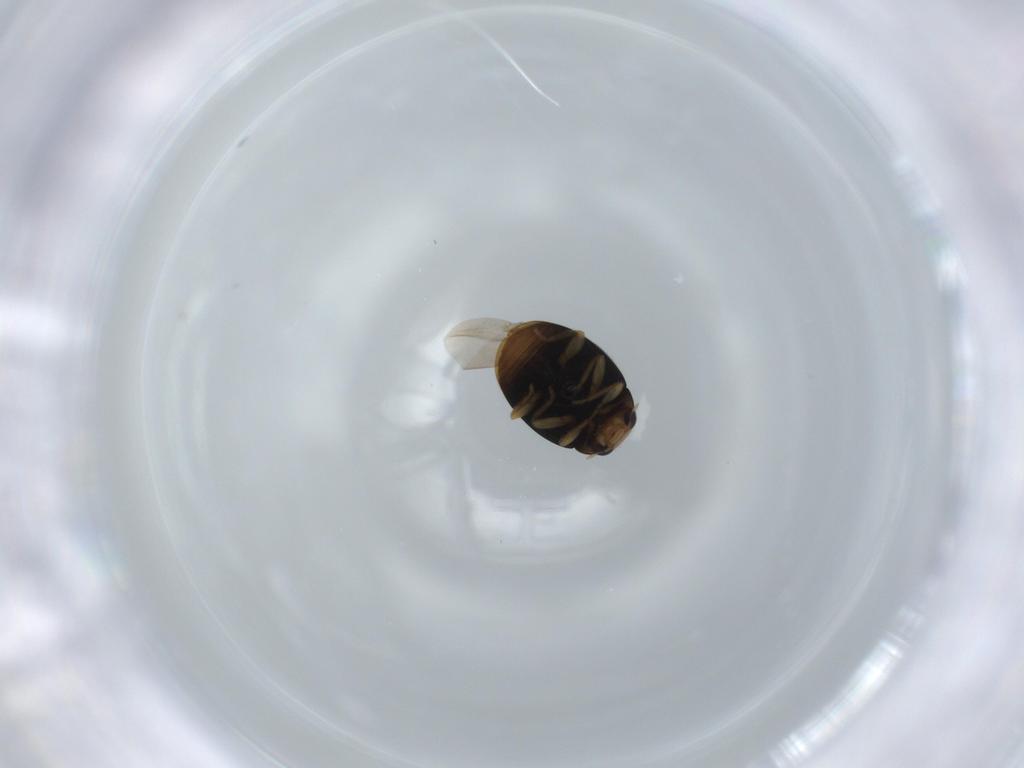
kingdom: Animalia
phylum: Arthropoda
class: Insecta
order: Coleoptera
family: Coccinellidae
